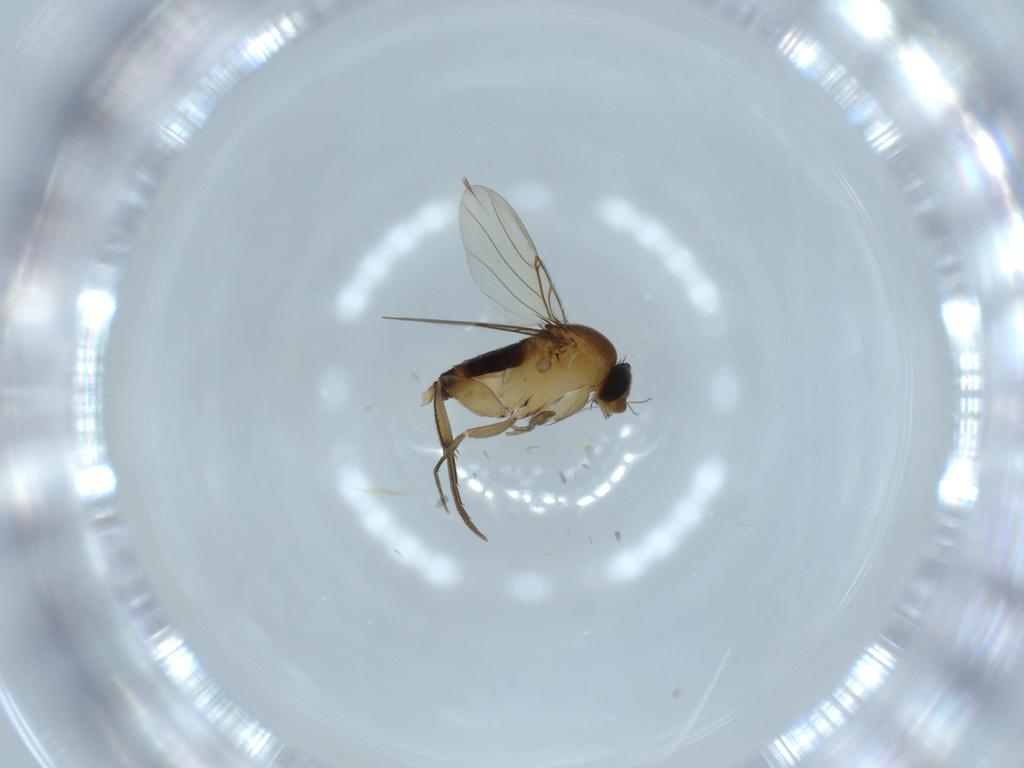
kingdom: Animalia
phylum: Arthropoda
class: Insecta
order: Diptera
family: Phoridae
